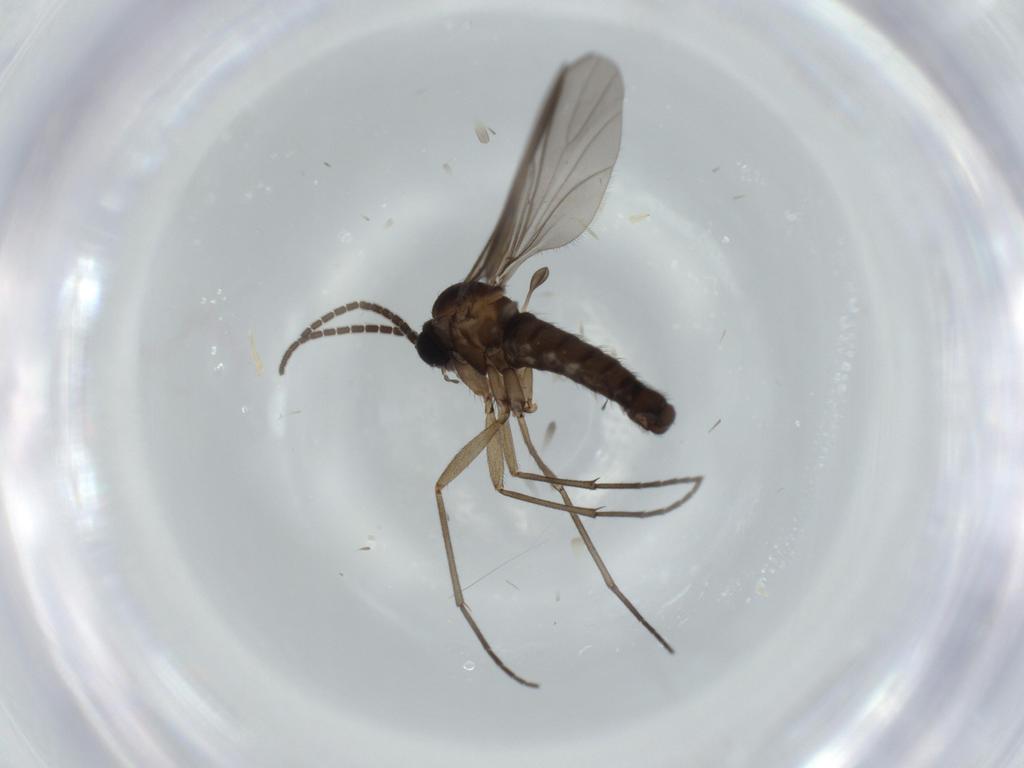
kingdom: Animalia
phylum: Arthropoda
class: Insecta
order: Diptera
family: Sciaridae
